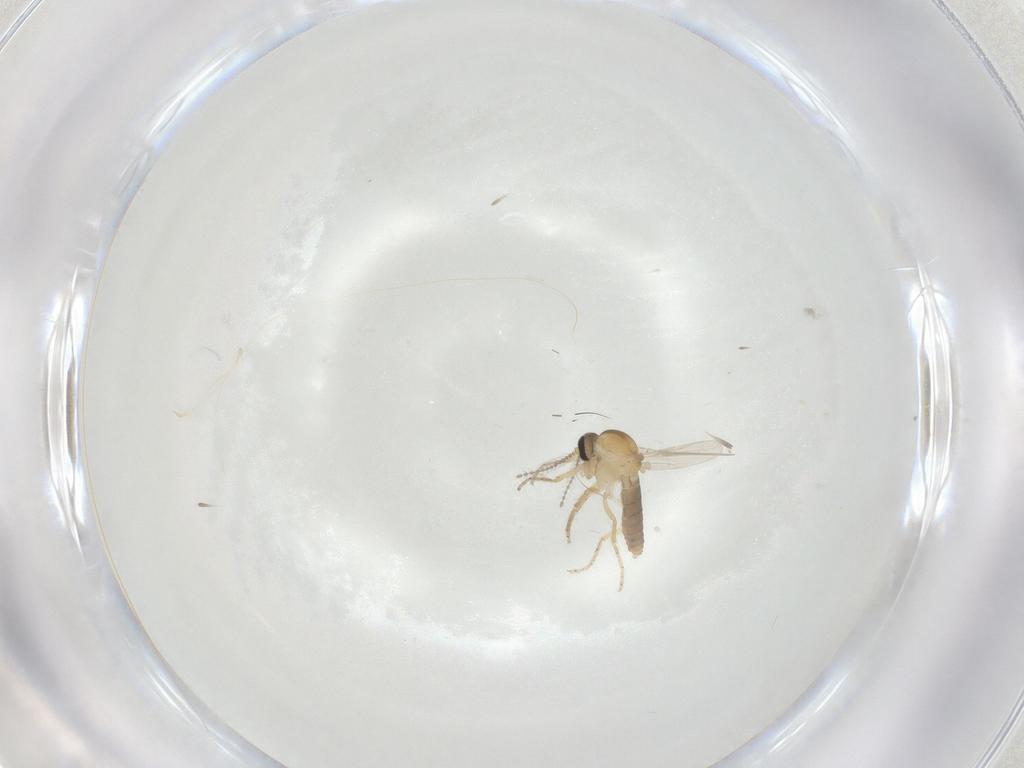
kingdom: Animalia
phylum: Arthropoda
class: Insecta
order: Diptera
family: Ceratopogonidae
